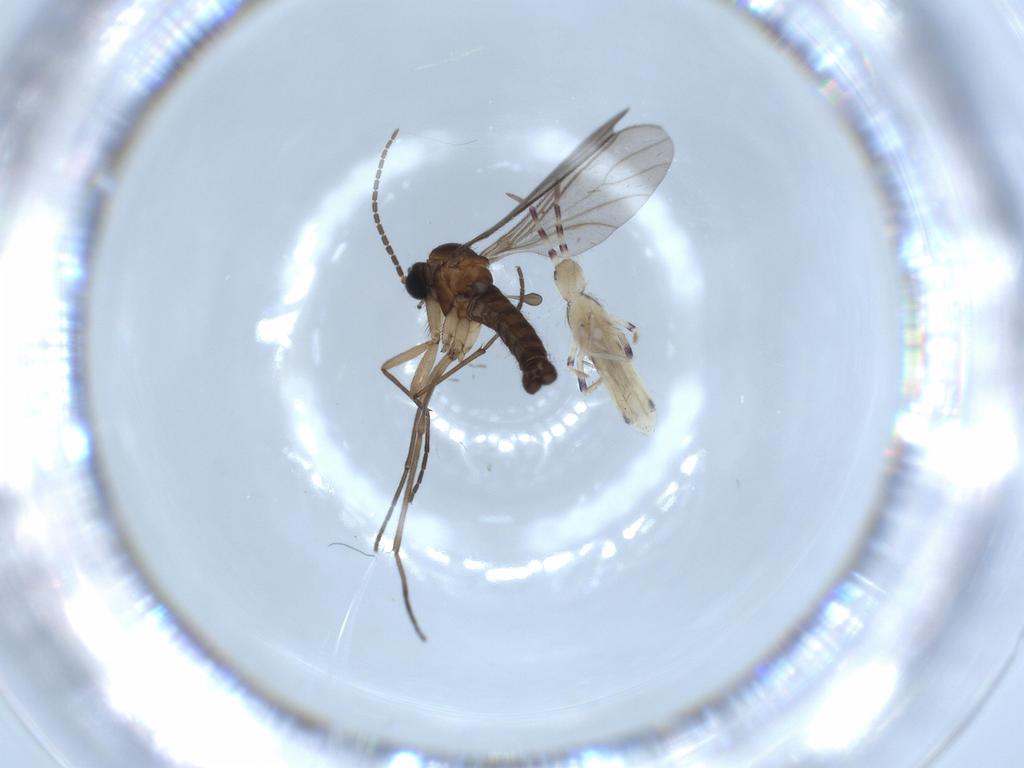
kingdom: Animalia
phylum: Arthropoda
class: Collembola
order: Entomobryomorpha
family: Entomobryidae
